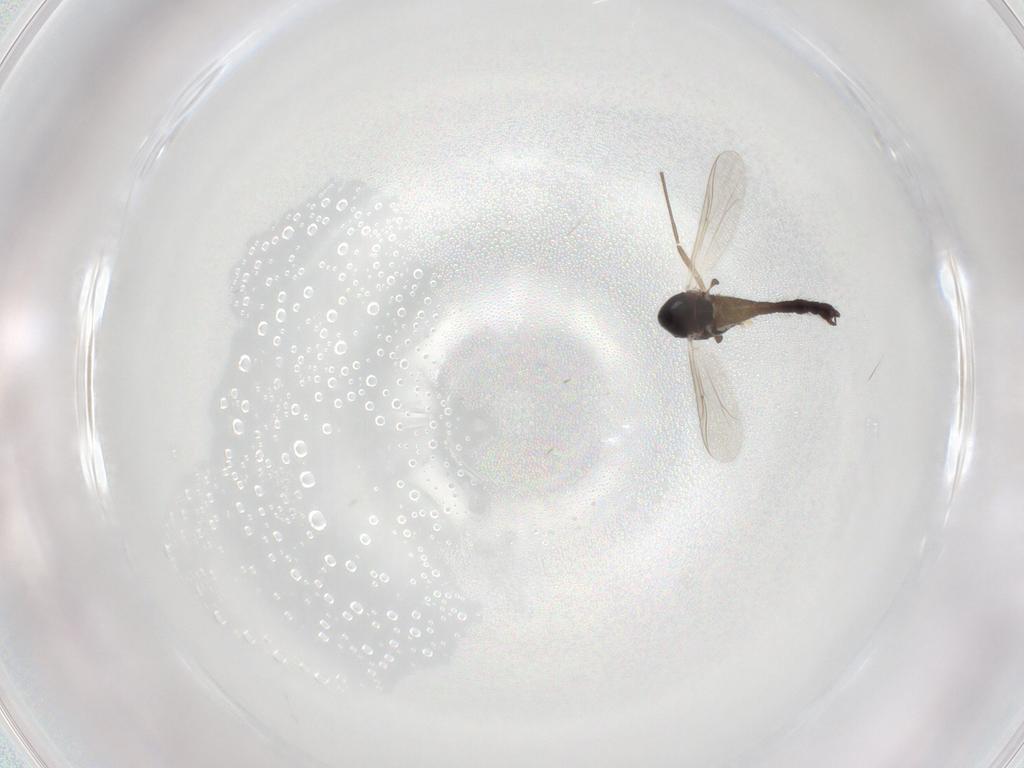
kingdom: Animalia
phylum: Arthropoda
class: Insecta
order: Diptera
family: Chironomidae
